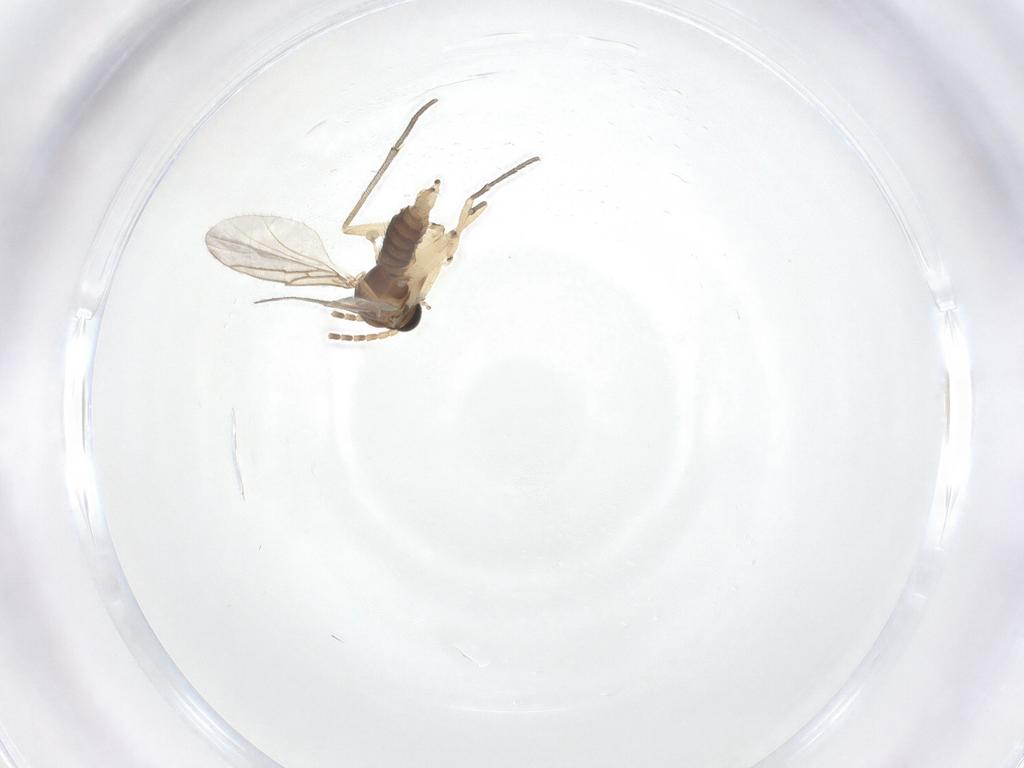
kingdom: Animalia
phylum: Arthropoda
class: Insecta
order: Diptera
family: Sciaridae
